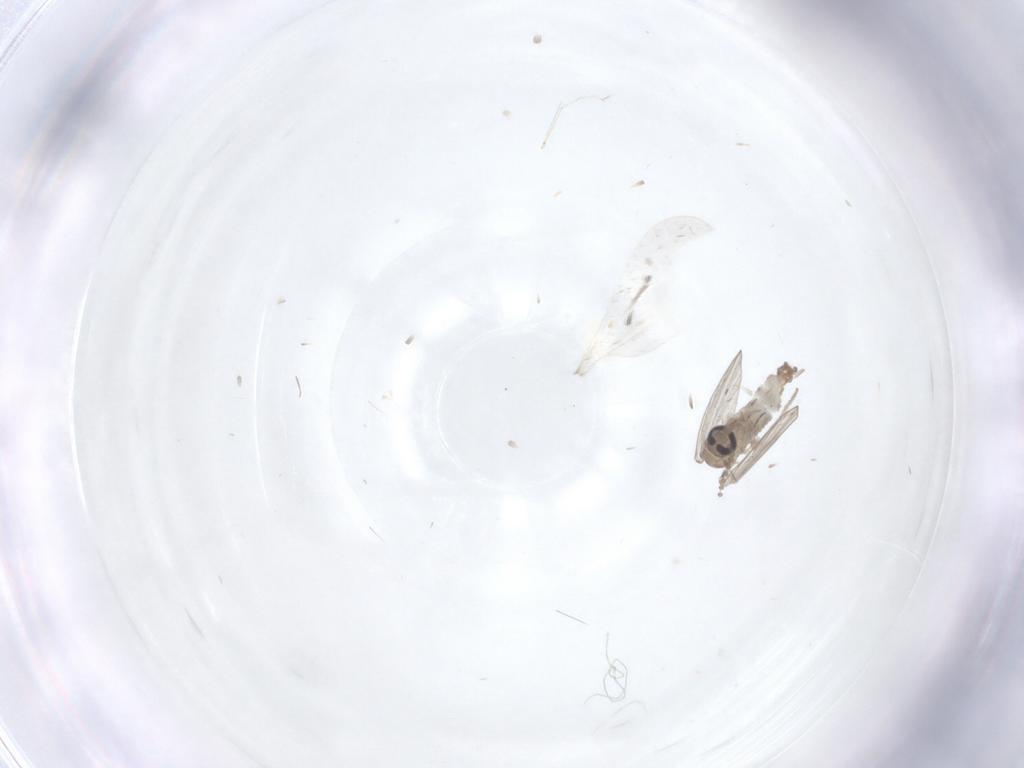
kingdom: Animalia
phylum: Arthropoda
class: Insecta
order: Diptera
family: Psychodidae
